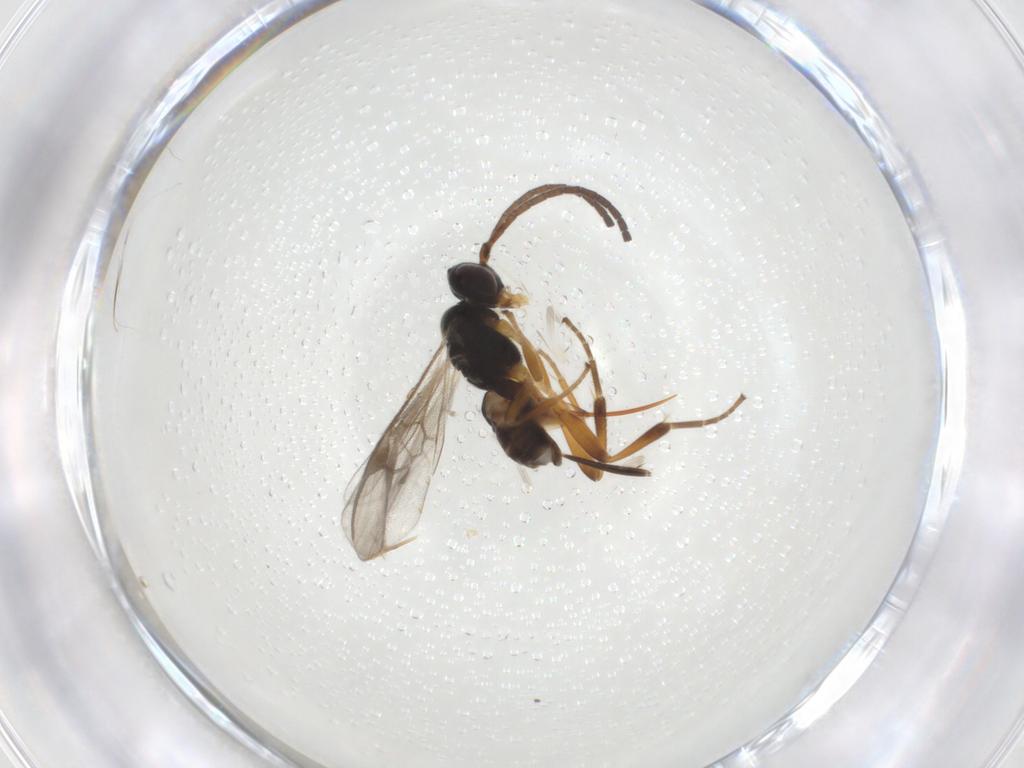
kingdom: Animalia
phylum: Arthropoda
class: Insecta
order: Hymenoptera
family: Braconidae
